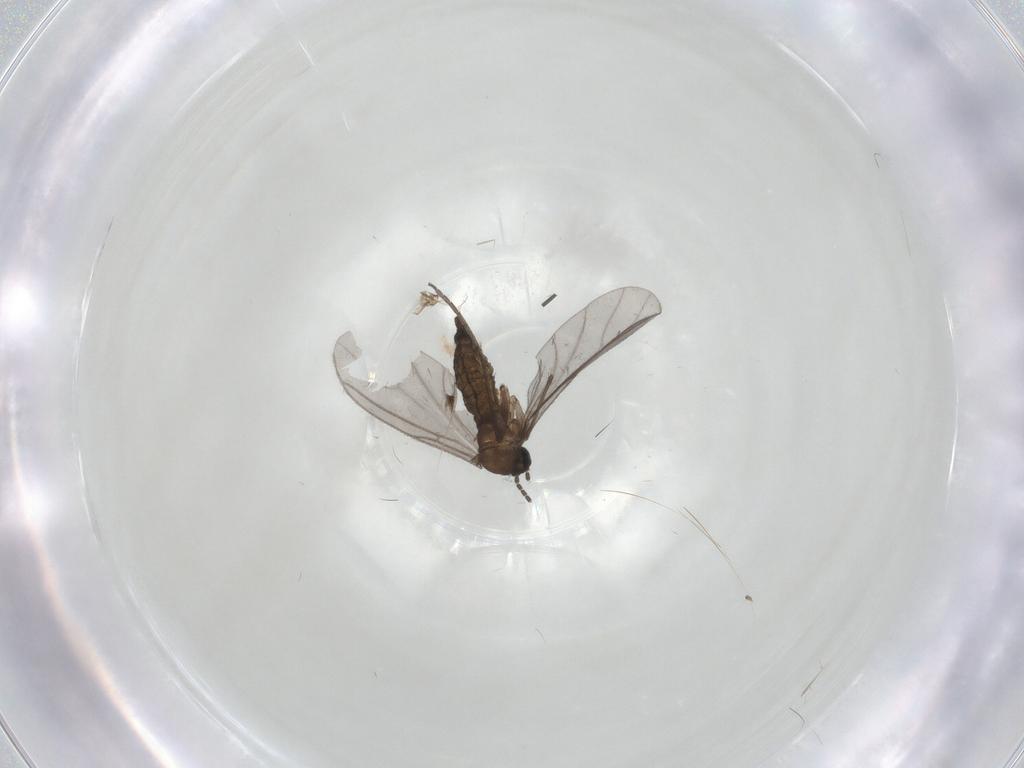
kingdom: Animalia
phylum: Arthropoda
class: Insecta
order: Diptera
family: Sciaridae
